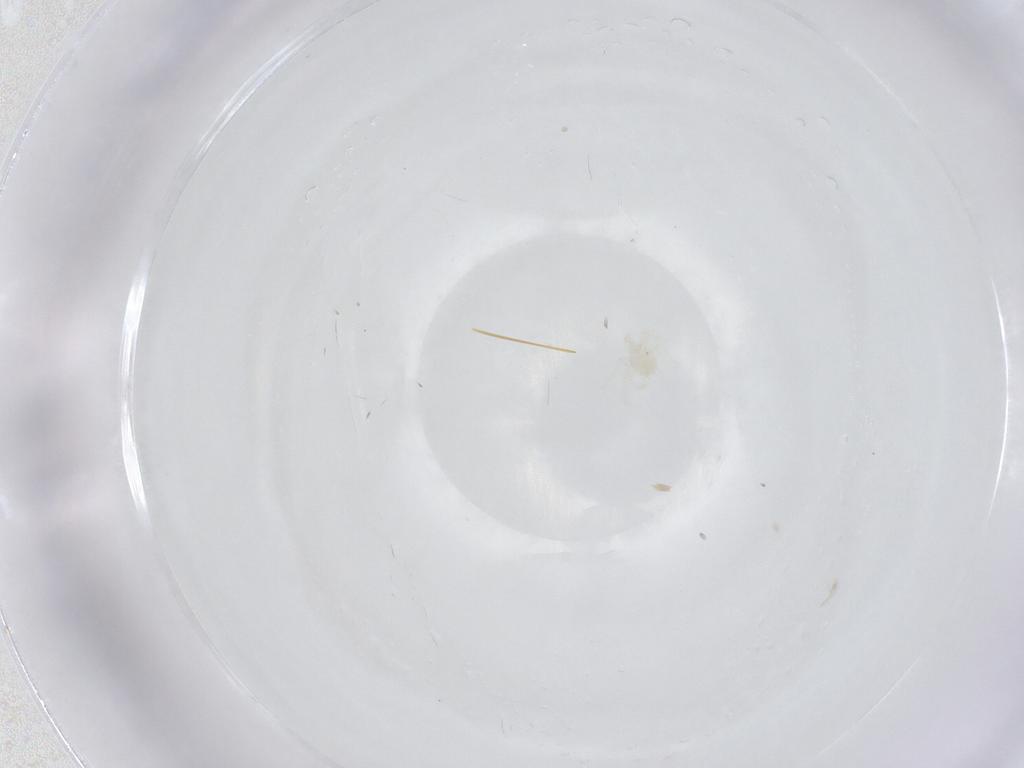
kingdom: Animalia
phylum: Arthropoda
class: Arachnida
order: Trombidiformes
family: Anystidae
